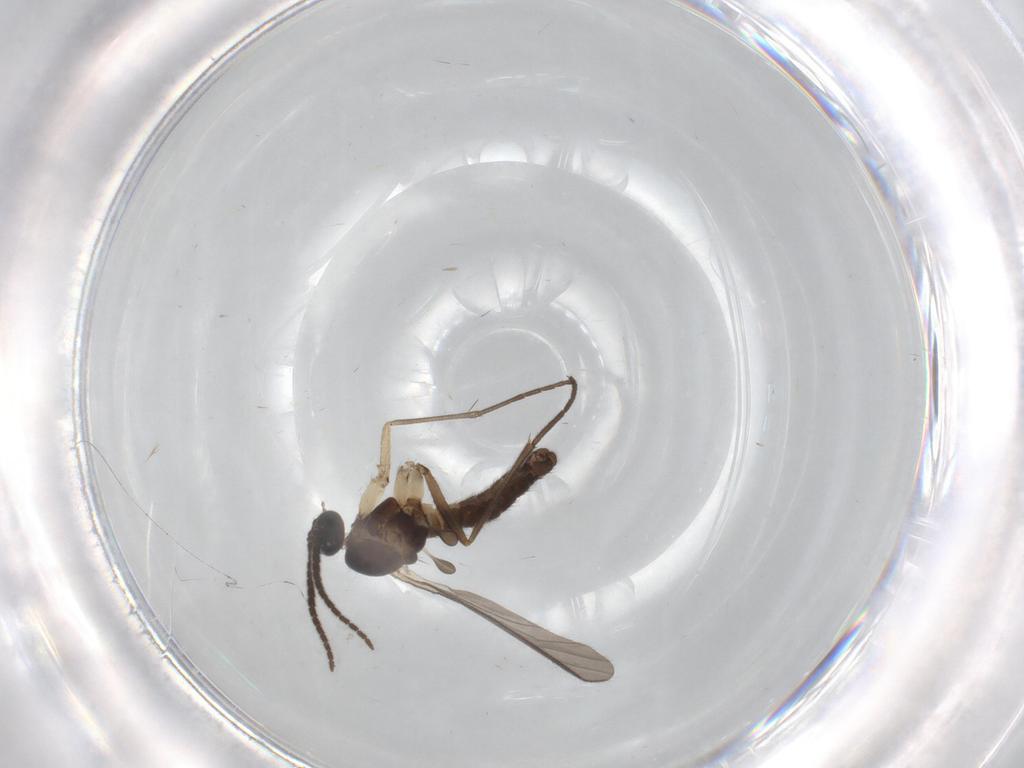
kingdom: Animalia
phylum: Arthropoda
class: Insecta
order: Diptera
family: Sciaridae
